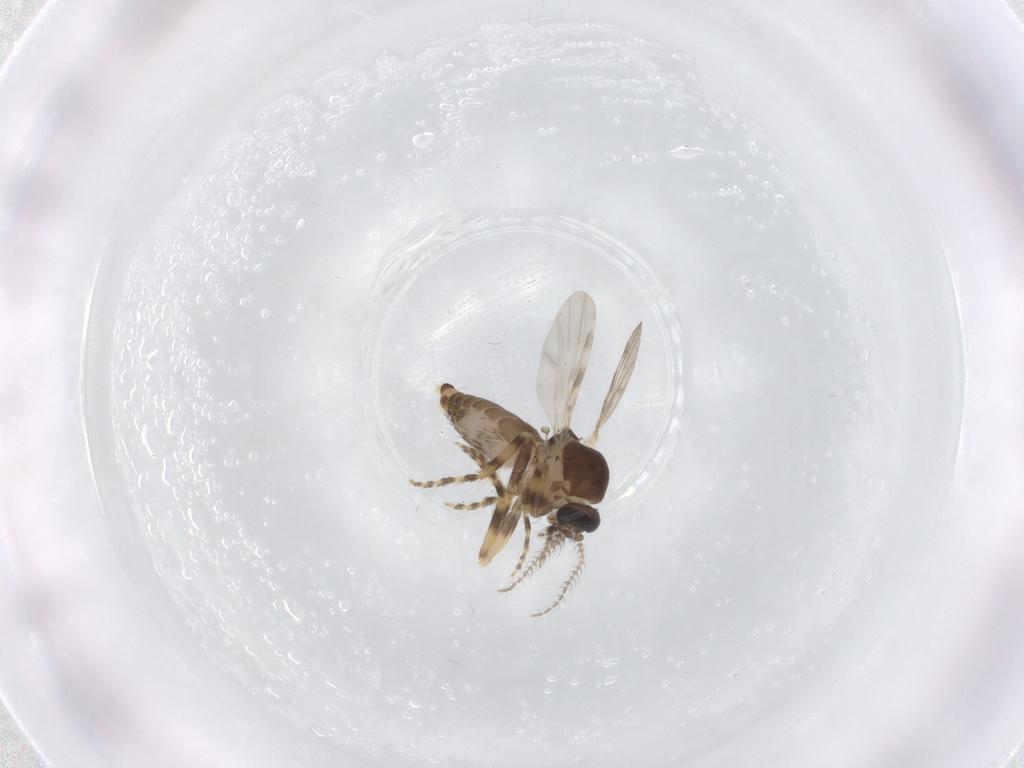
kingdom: Animalia
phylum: Arthropoda
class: Insecta
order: Diptera
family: Ceratopogonidae
